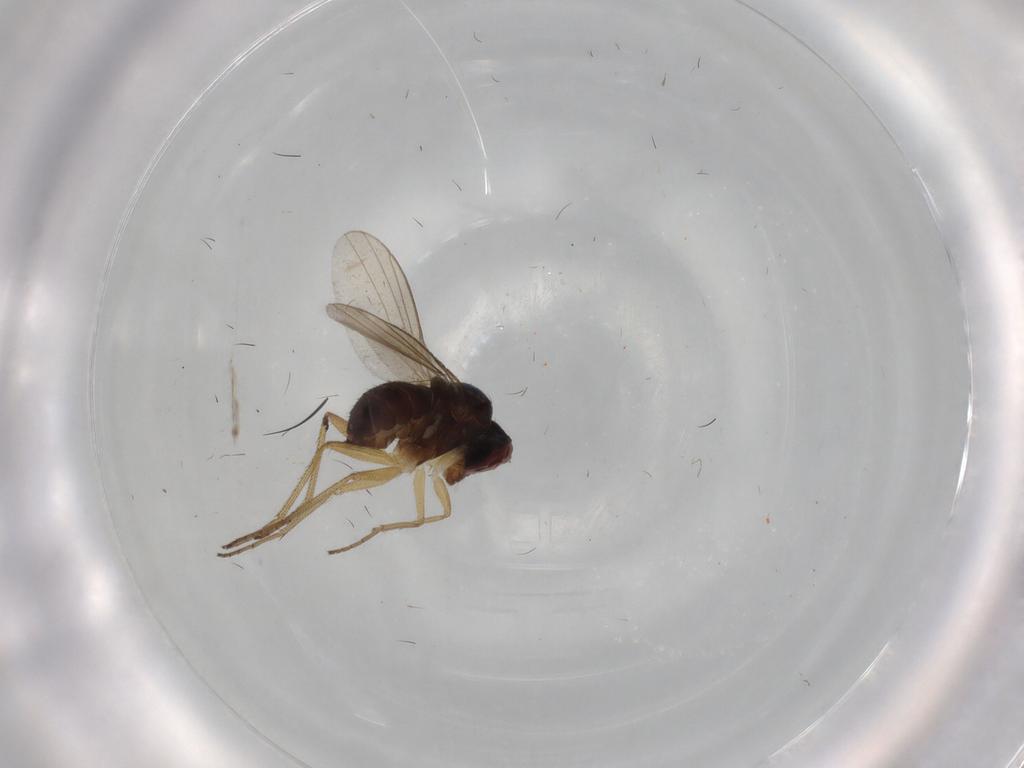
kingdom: Animalia
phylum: Arthropoda
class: Insecta
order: Diptera
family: Dolichopodidae
